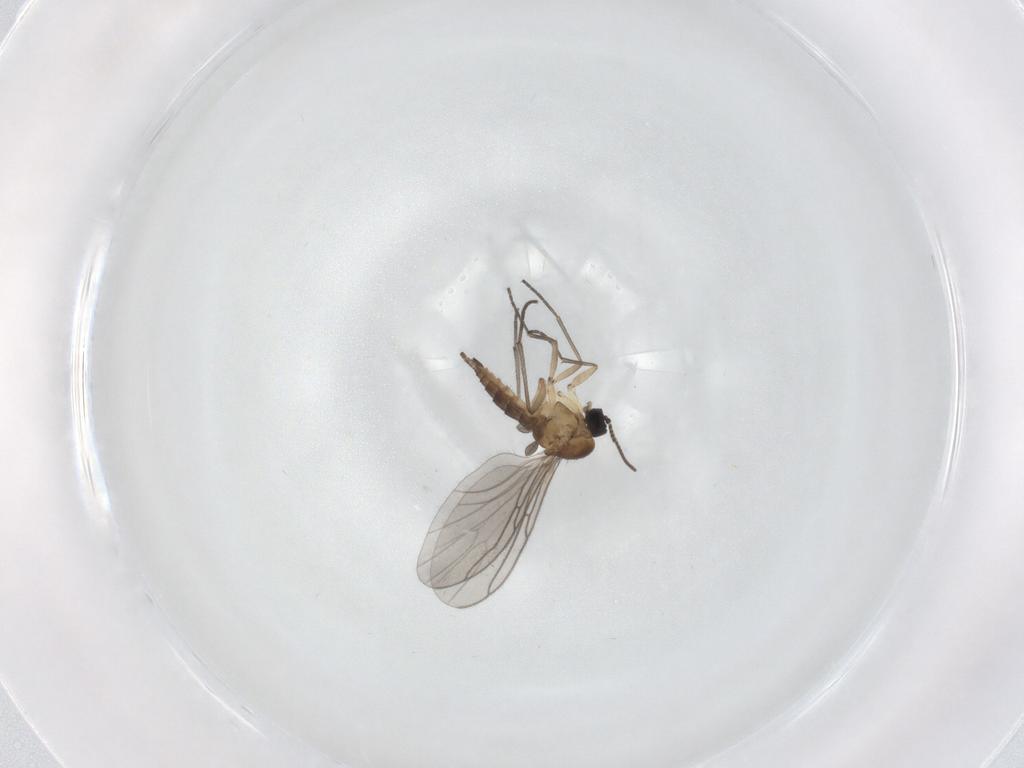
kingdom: Animalia
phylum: Arthropoda
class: Insecta
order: Diptera
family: Sciaridae
